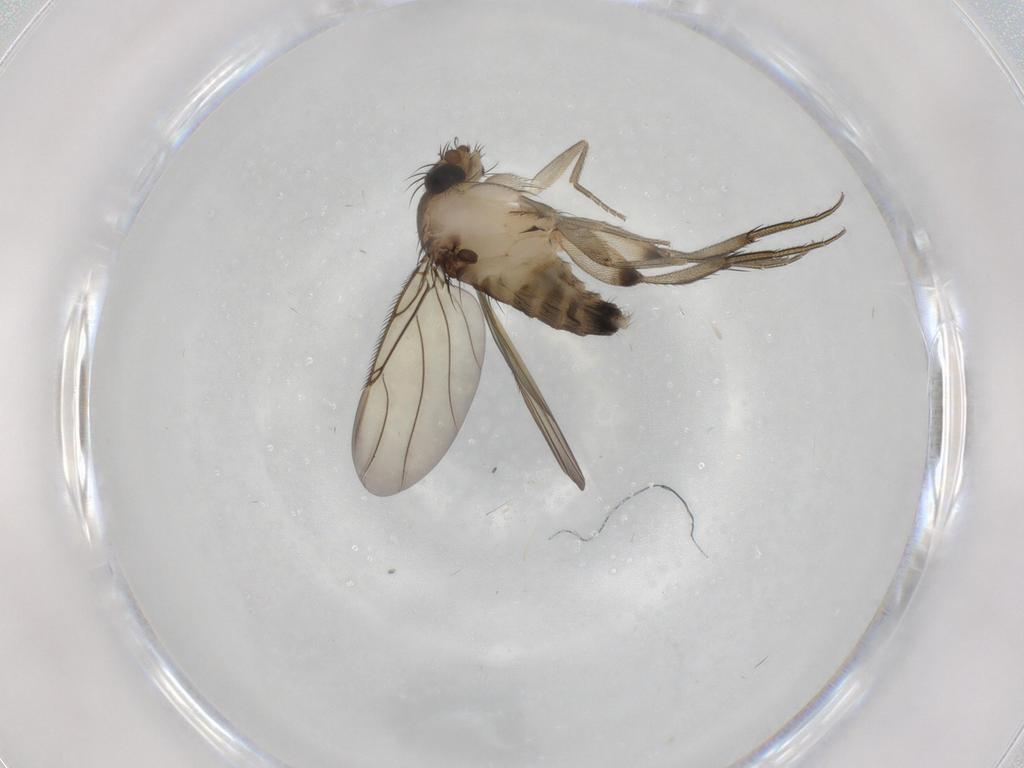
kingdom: Animalia
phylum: Arthropoda
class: Insecta
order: Diptera
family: Phoridae
